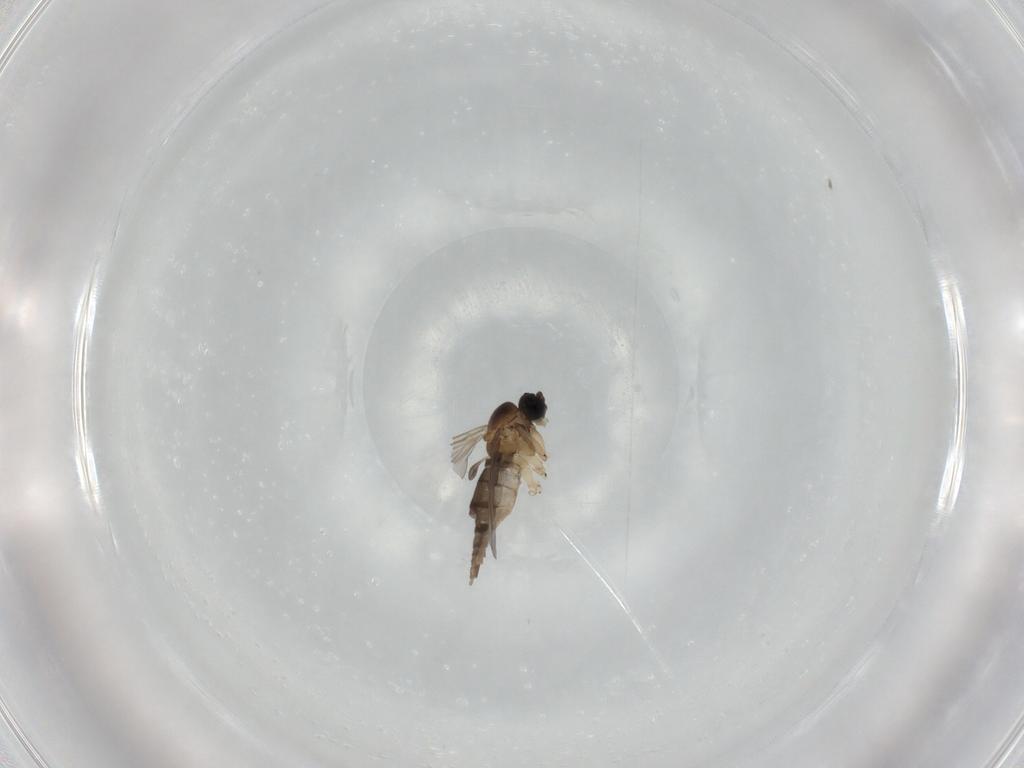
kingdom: Animalia
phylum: Arthropoda
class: Insecta
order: Diptera
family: Sciaridae
